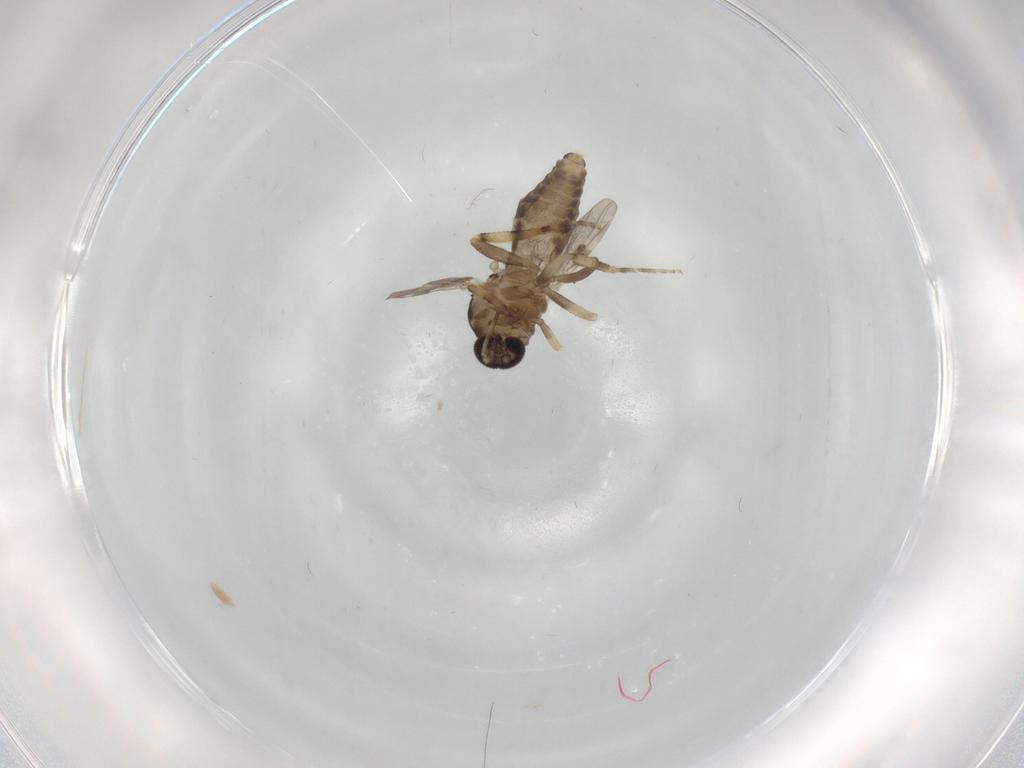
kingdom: Animalia
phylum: Arthropoda
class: Insecta
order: Diptera
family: Ceratopogonidae
